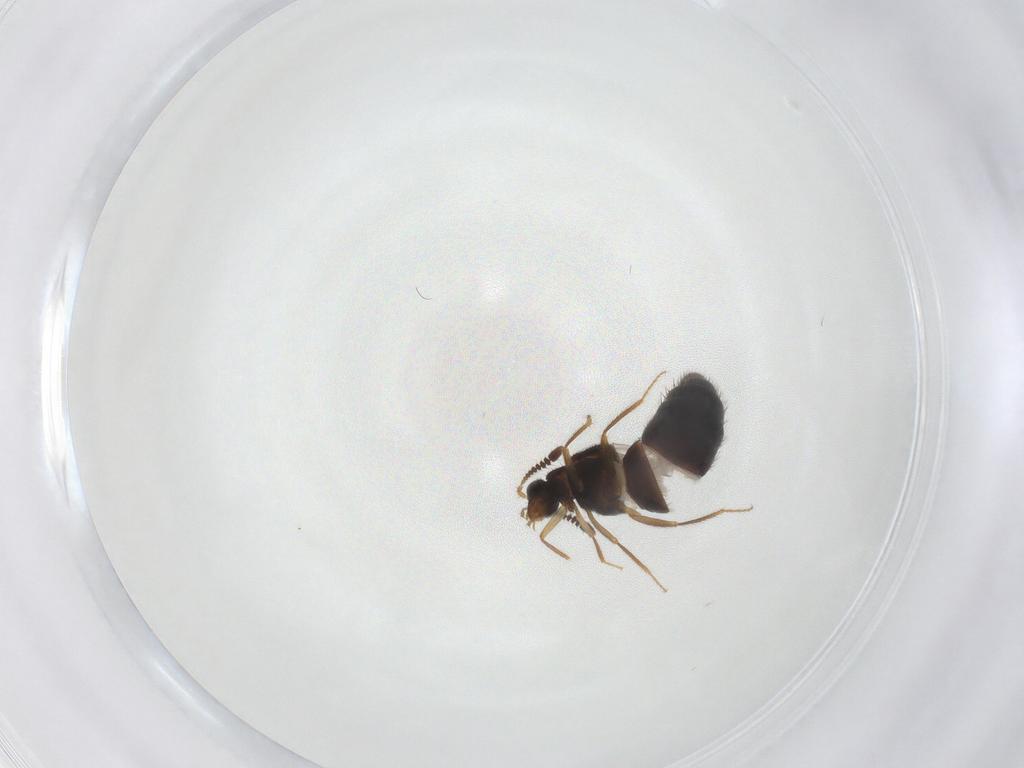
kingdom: Animalia
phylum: Arthropoda
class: Insecta
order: Coleoptera
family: Staphylinidae
